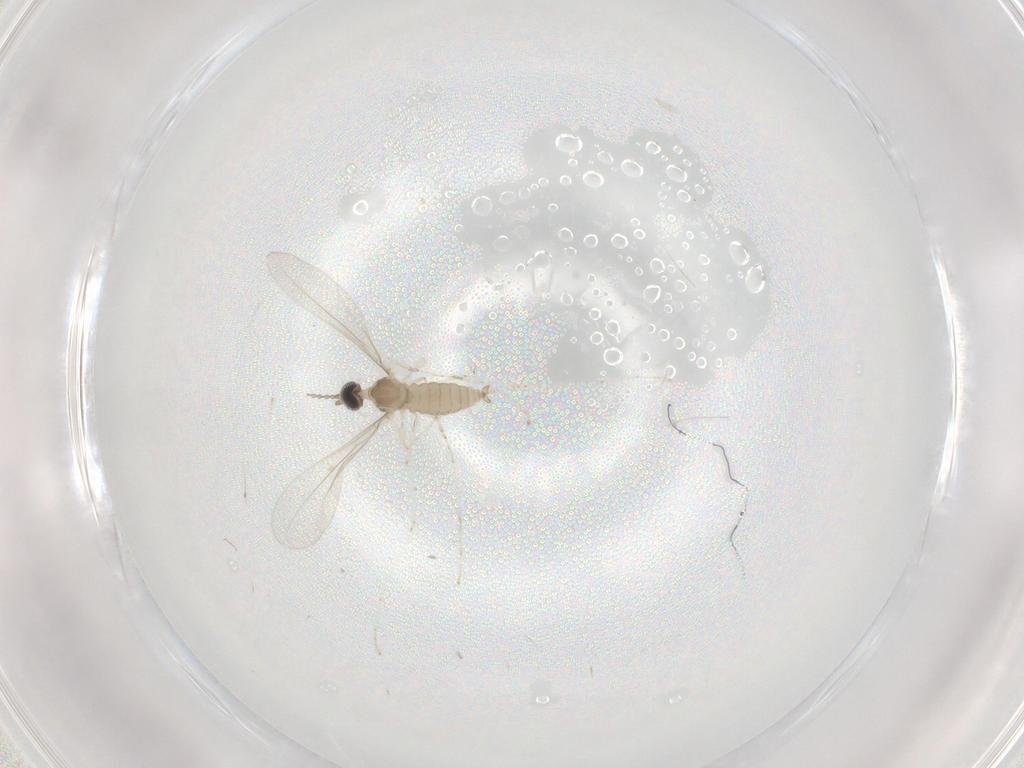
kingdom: Animalia
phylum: Arthropoda
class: Insecta
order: Diptera
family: Cecidomyiidae
